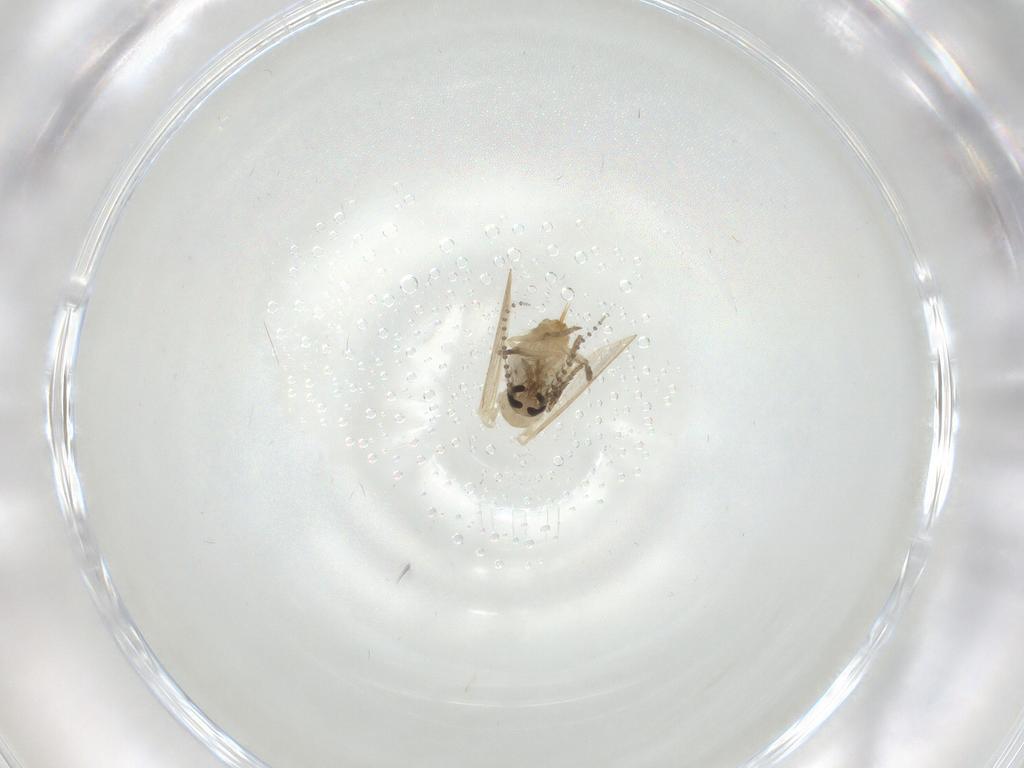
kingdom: Animalia
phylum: Arthropoda
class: Insecta
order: Diptera
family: Psychodidae
